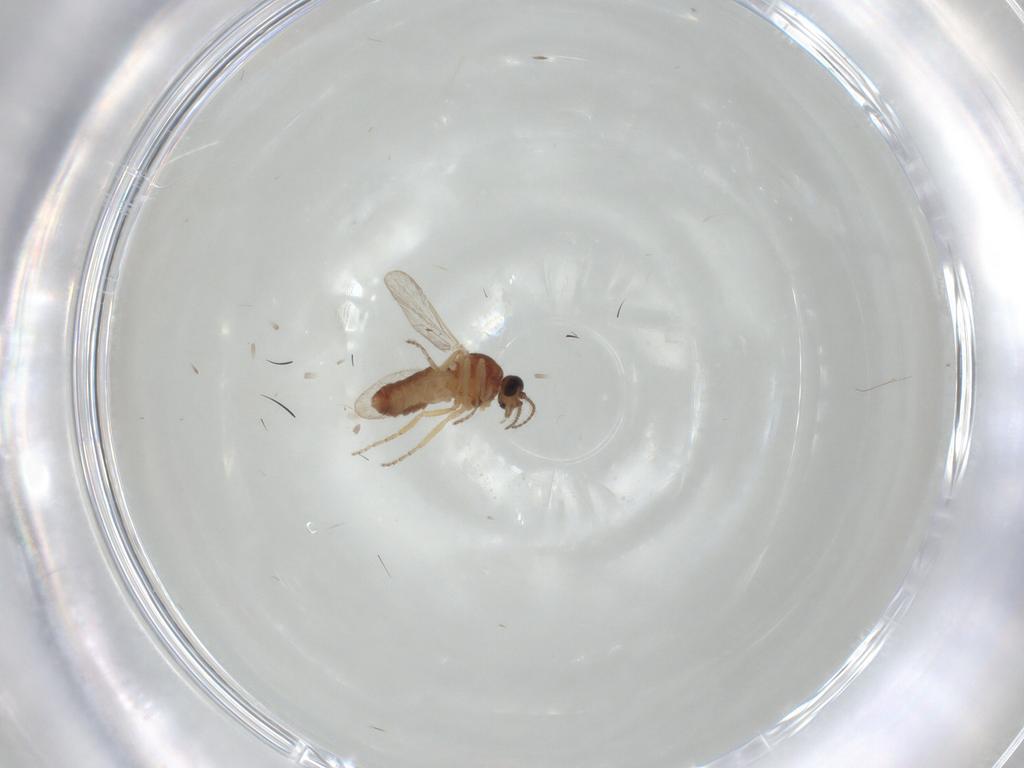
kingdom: Animalia
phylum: Arthropoda
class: Insecta
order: Diptera
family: Ceratopogonidae
